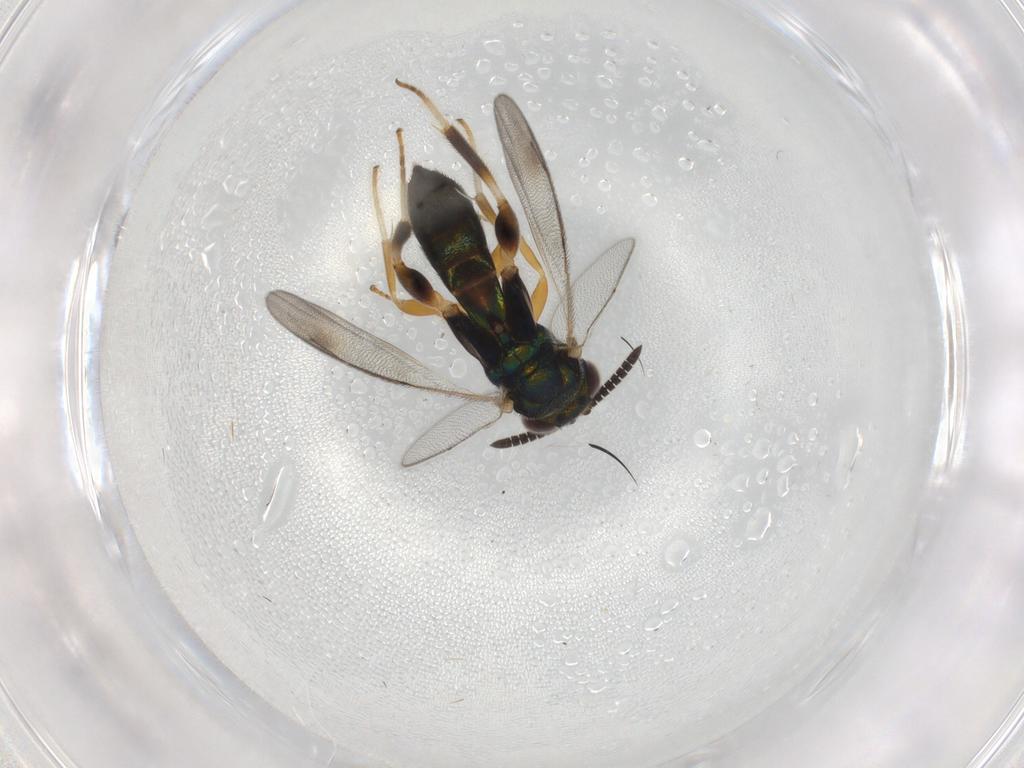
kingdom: Animalia
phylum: Arthropoda
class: Insecta
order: Hymenoptera
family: Cleonyminae
